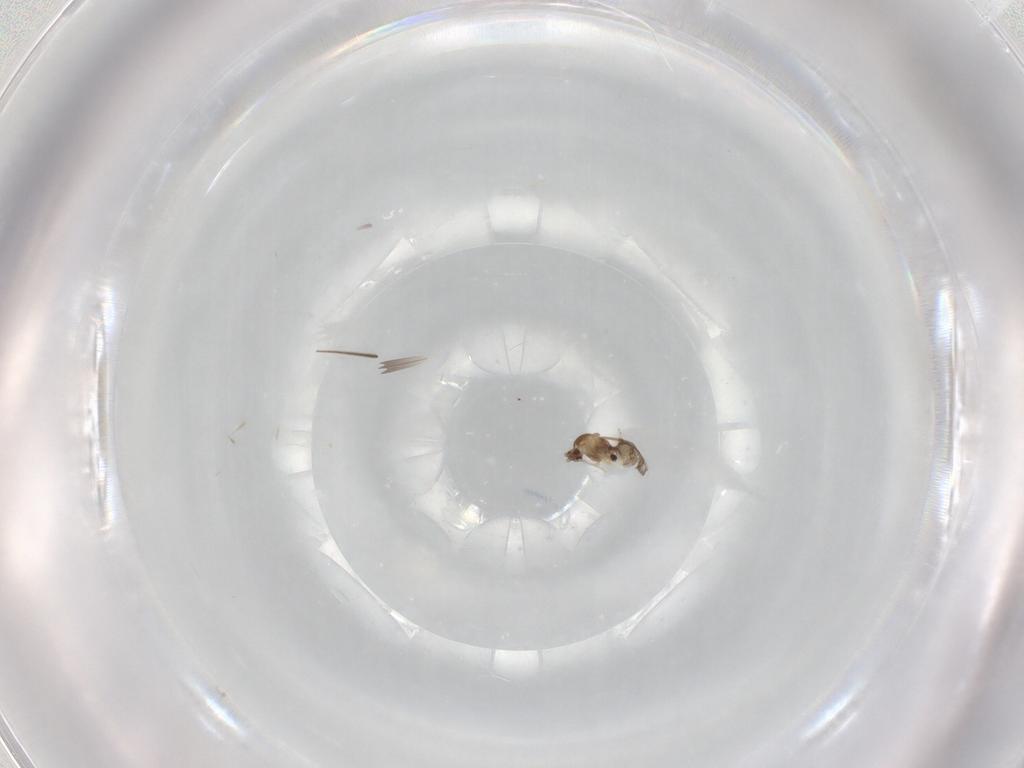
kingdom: Animalia
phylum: Arthropoda
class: Insecta
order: Diptera
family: Cecidomyiidae
